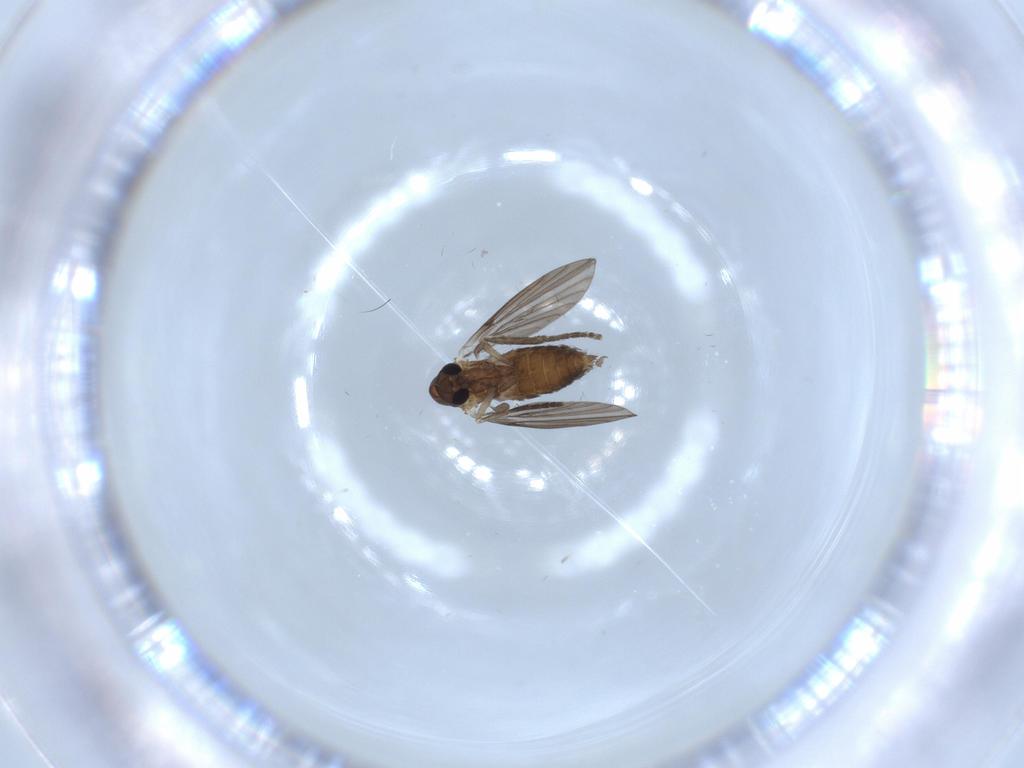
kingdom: Animalia
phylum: Arthropoda
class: Insecta
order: Diptera
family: Psychodidae
